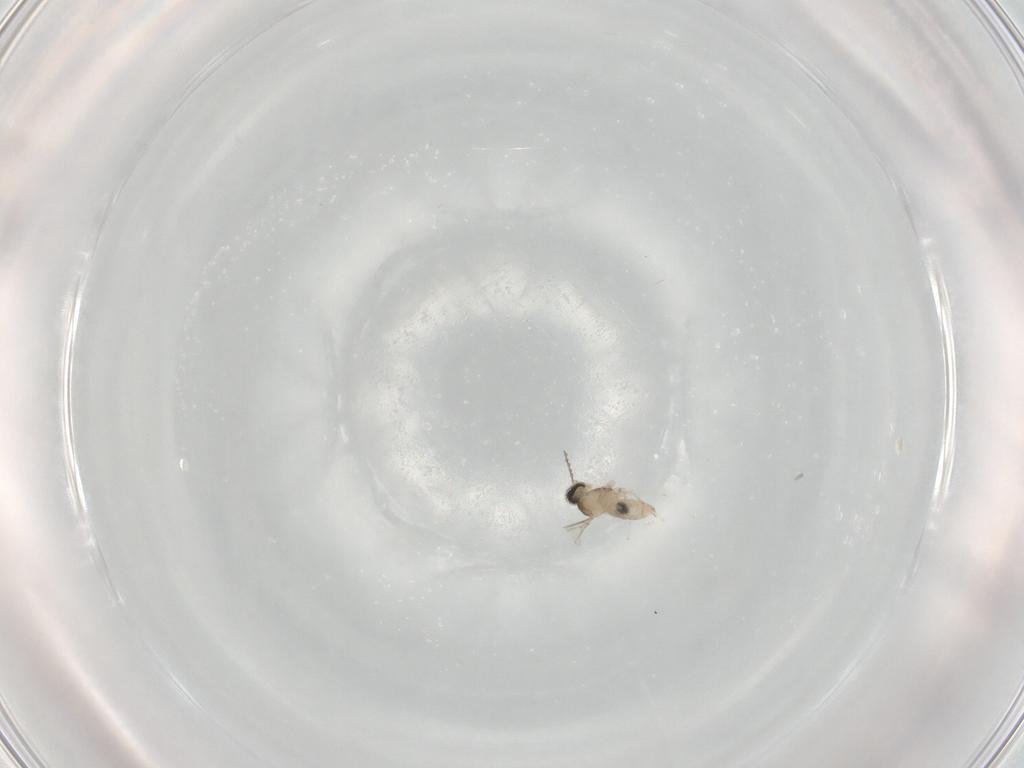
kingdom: Animalia
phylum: Arthropoda
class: Insecta
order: Diptera
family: Cecidomyiidae
